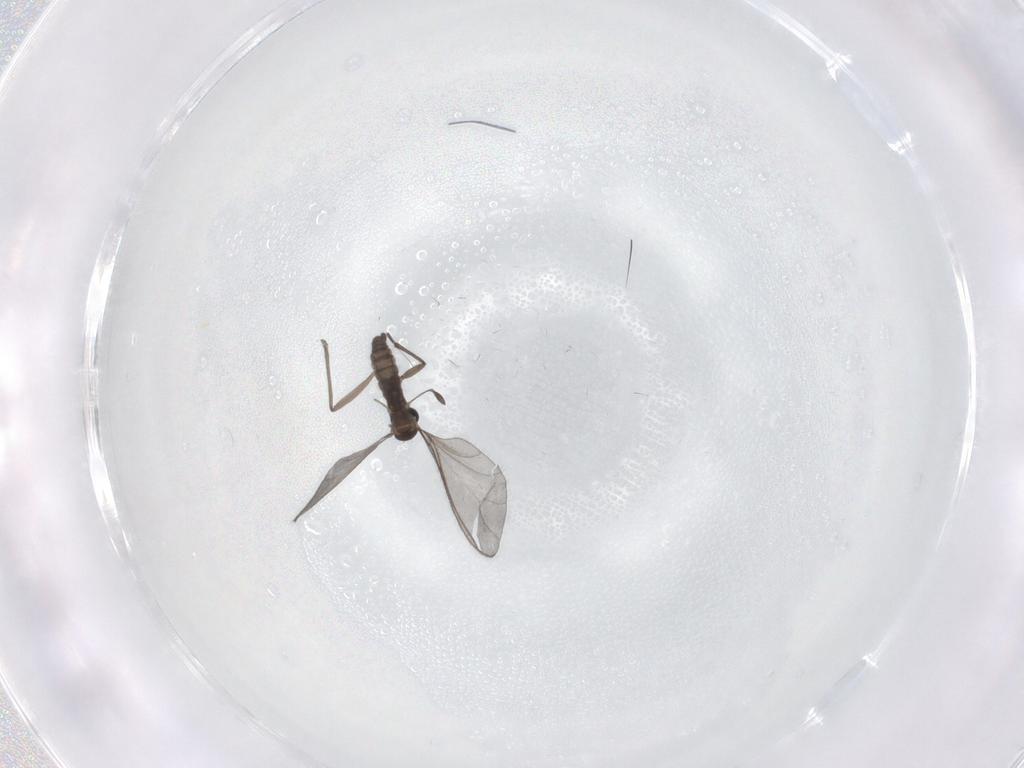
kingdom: Animalia
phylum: Arthropoda
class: Insecta
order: Diptera
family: Sciaridae
